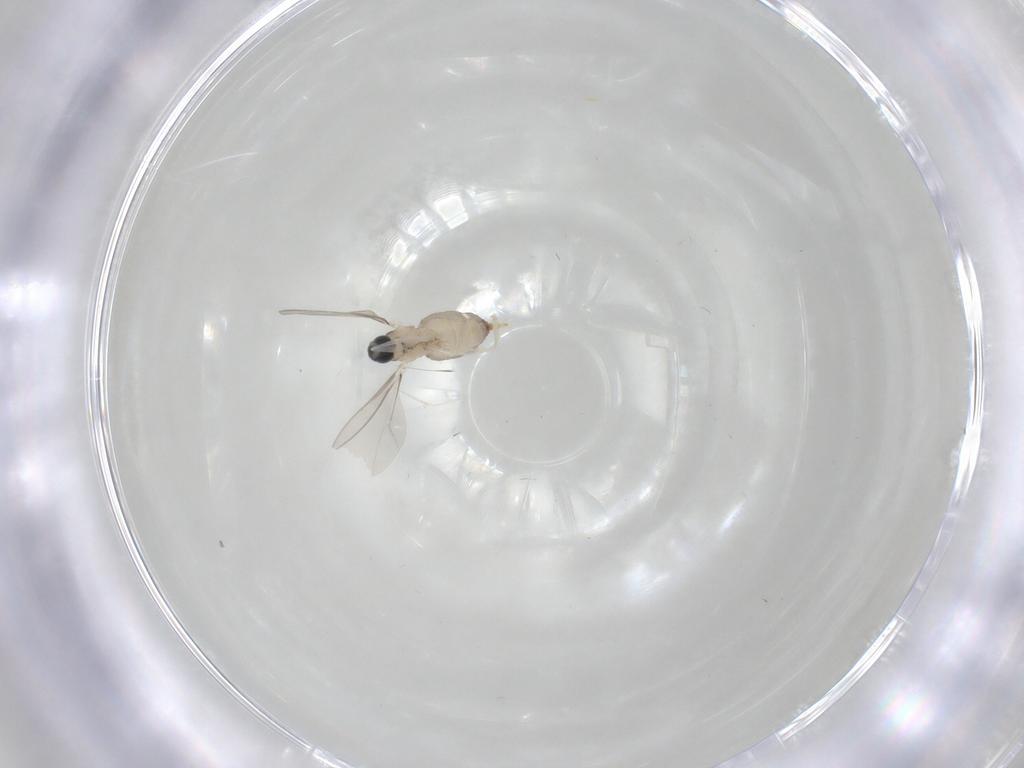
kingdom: Animalia
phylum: Arthropoda
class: Insecta
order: Diptera
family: Cecidomyiidae
